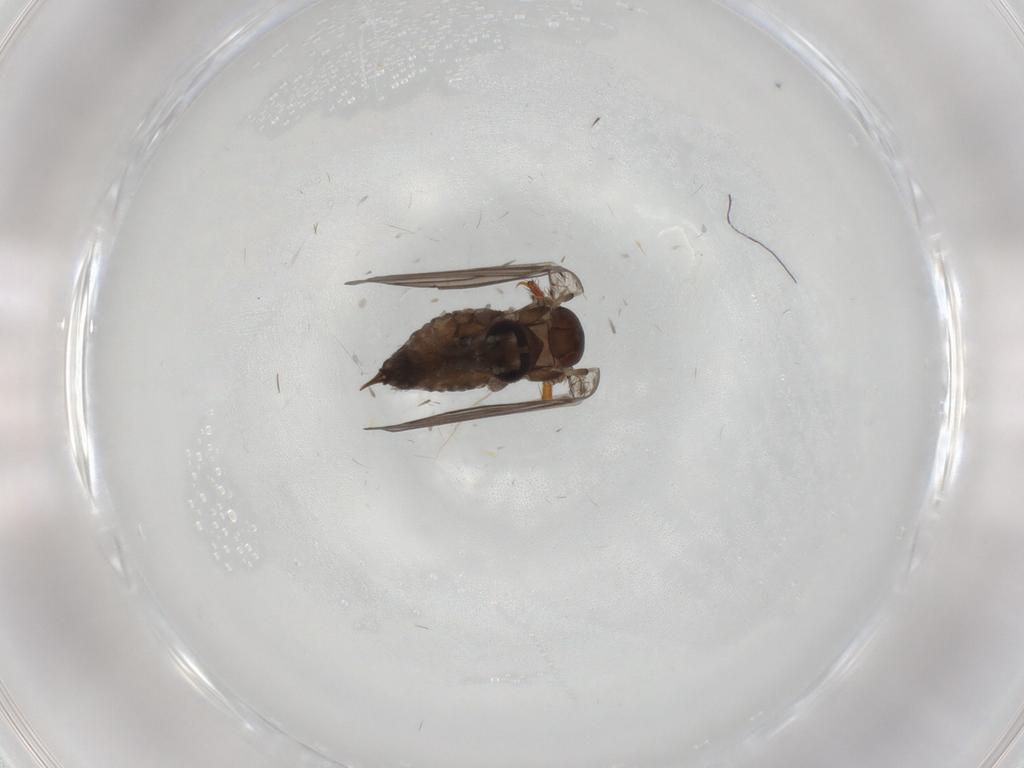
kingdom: Animalia
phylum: Arthropoda
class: Insecta
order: Diptera
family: Psychodidae
